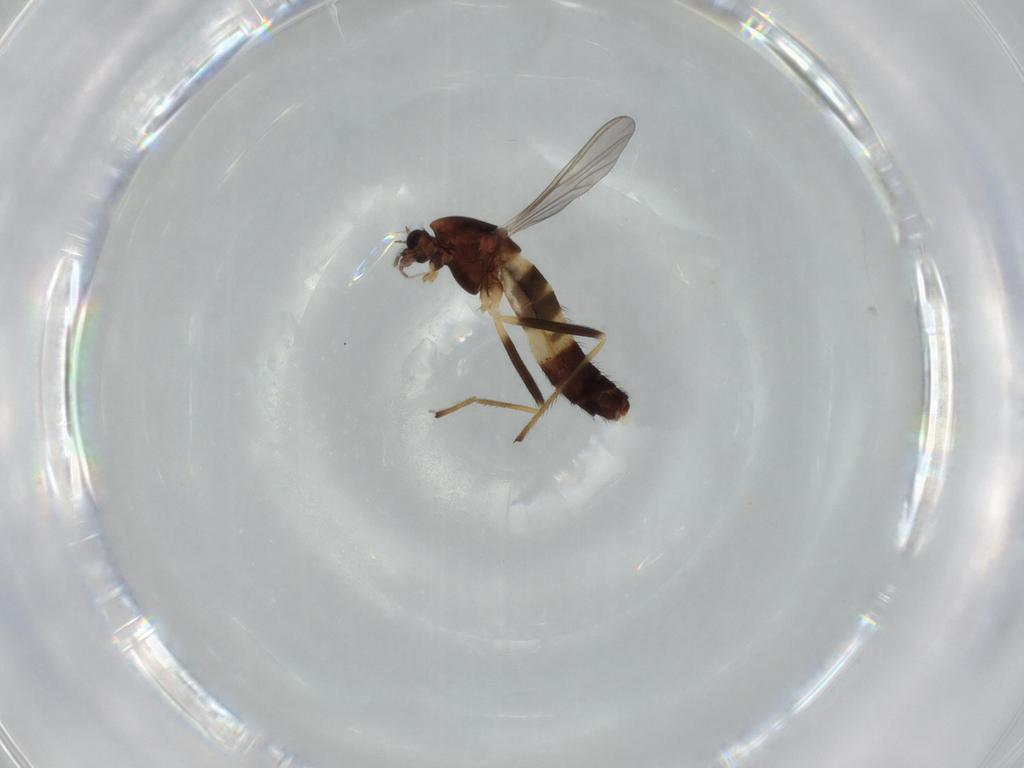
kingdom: Animalia
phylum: Arthropoda
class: Insecta
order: Diptera
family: Chironomidae
